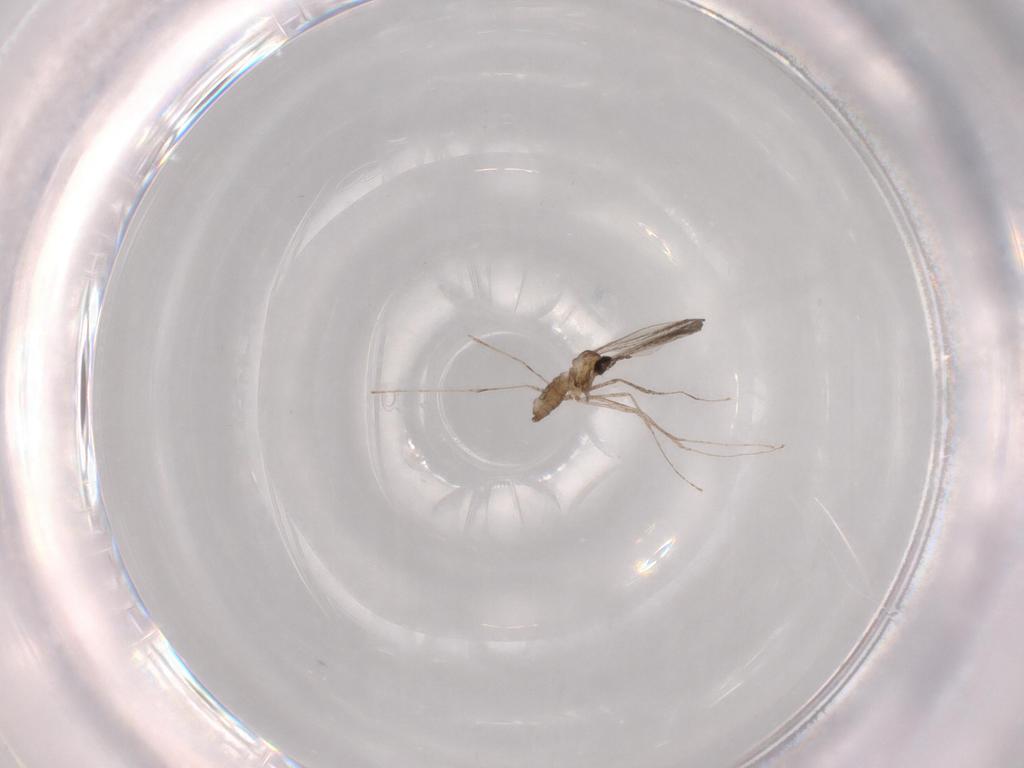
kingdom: Animalia
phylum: Arthropoda
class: Insecta
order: Diptera
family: Cecidomyiidae
